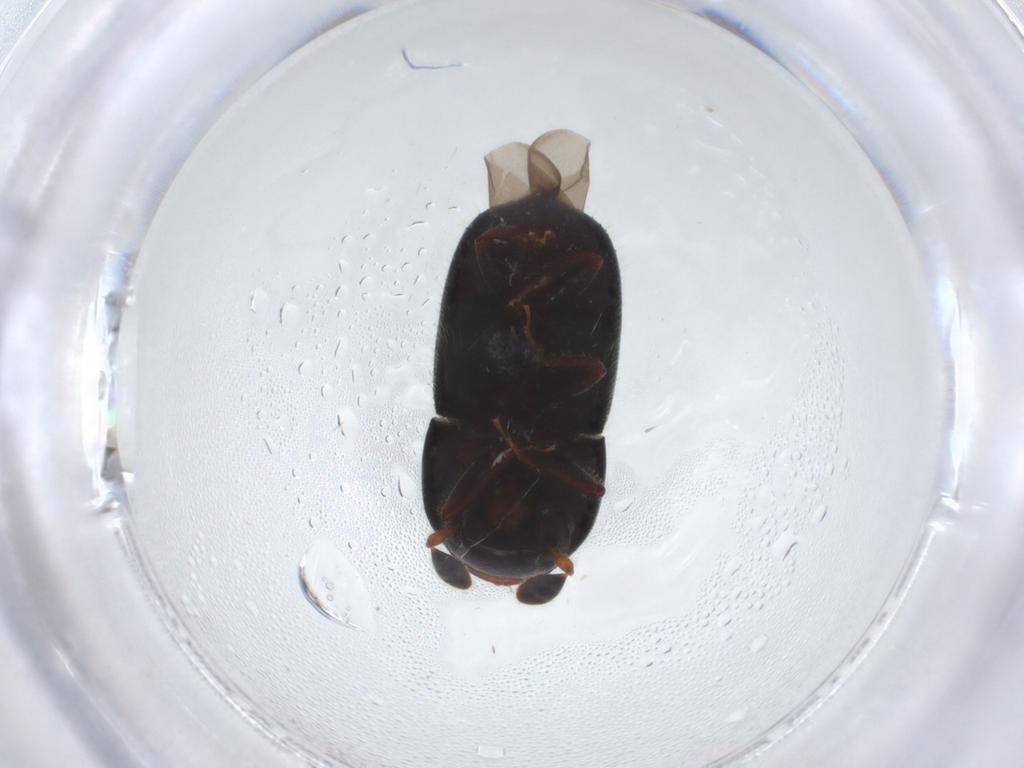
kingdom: Animalia
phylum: Arthropoda
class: Insecta
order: Coleoptera
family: Curculionidae
